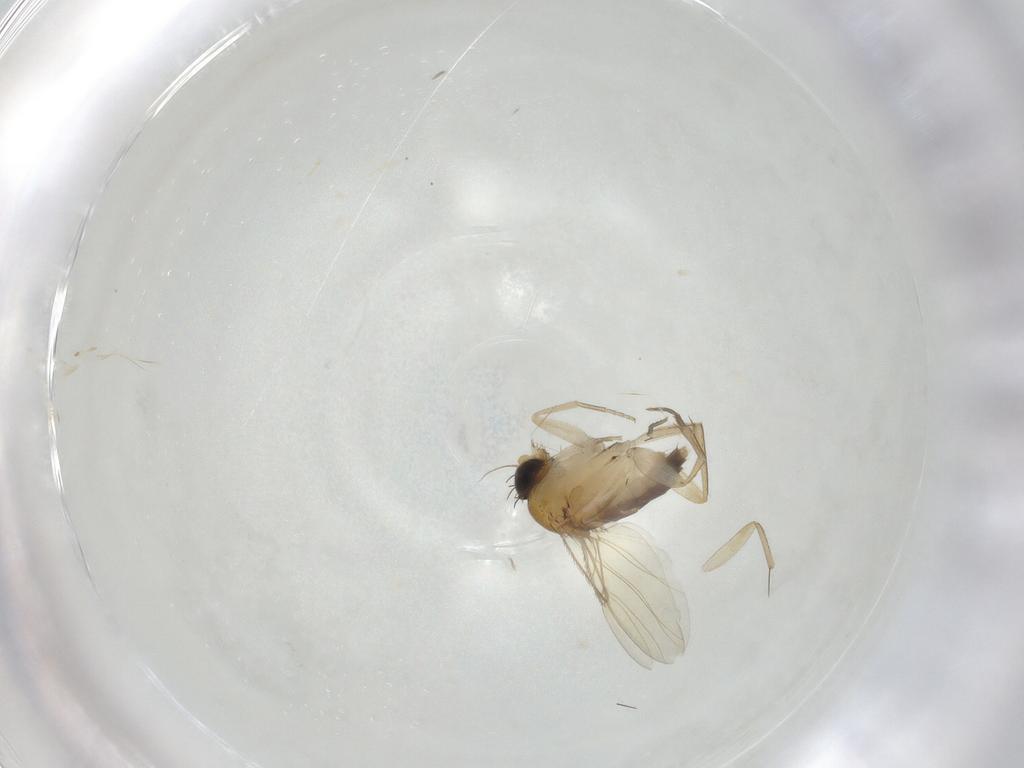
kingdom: Animalia
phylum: Arthropoda
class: Insecta
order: Diptera
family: Phoridae
